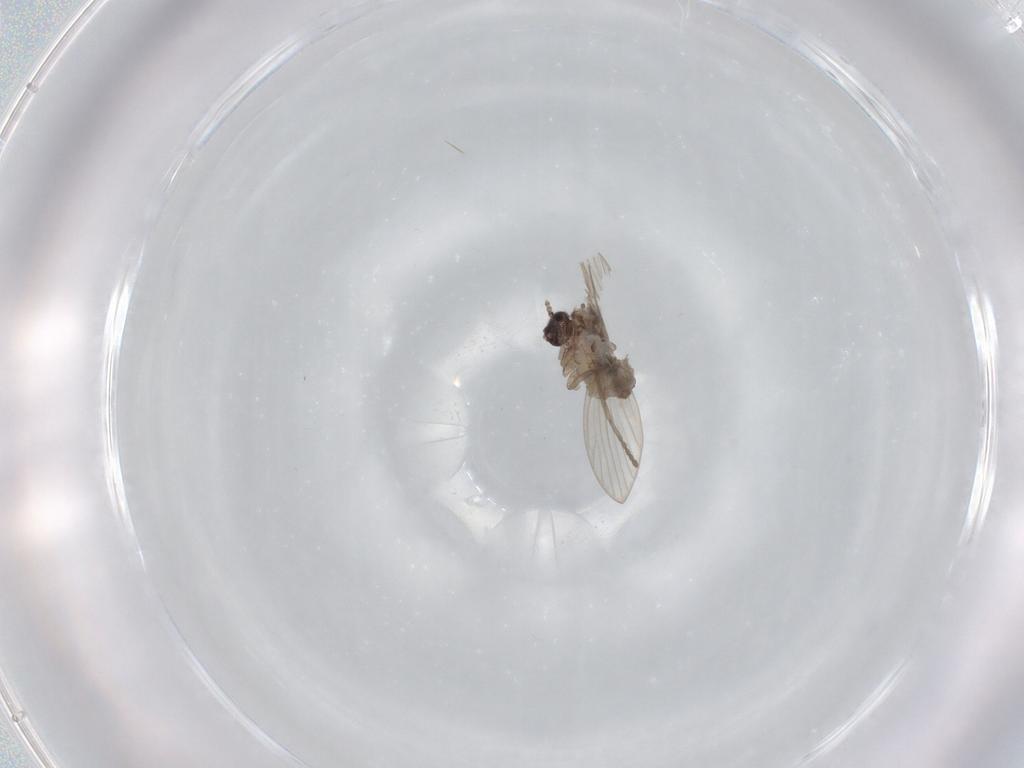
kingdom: Animalia
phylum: Arthropoda
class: Insecta
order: Diptera
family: Psychodidae
